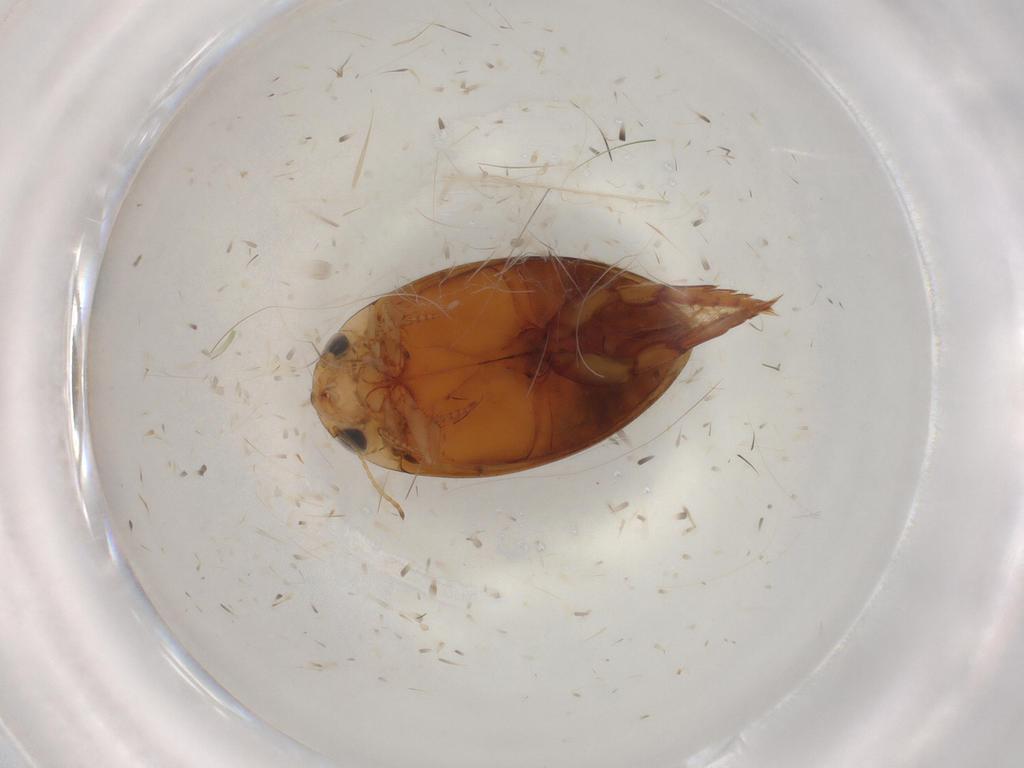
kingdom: Animalia
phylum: Arthropoda
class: Insecta
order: Coleoptera
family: Dytiscidae
